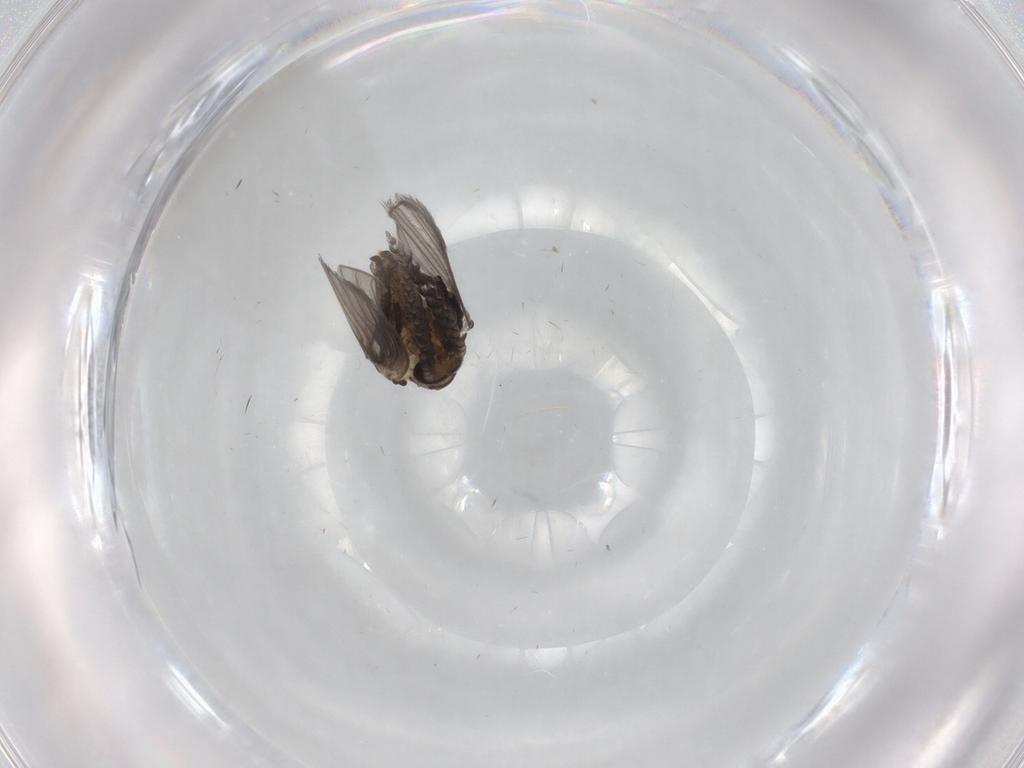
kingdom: Animalia
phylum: Arthropoda
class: Insecta
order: Diptera
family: Psychodidae
